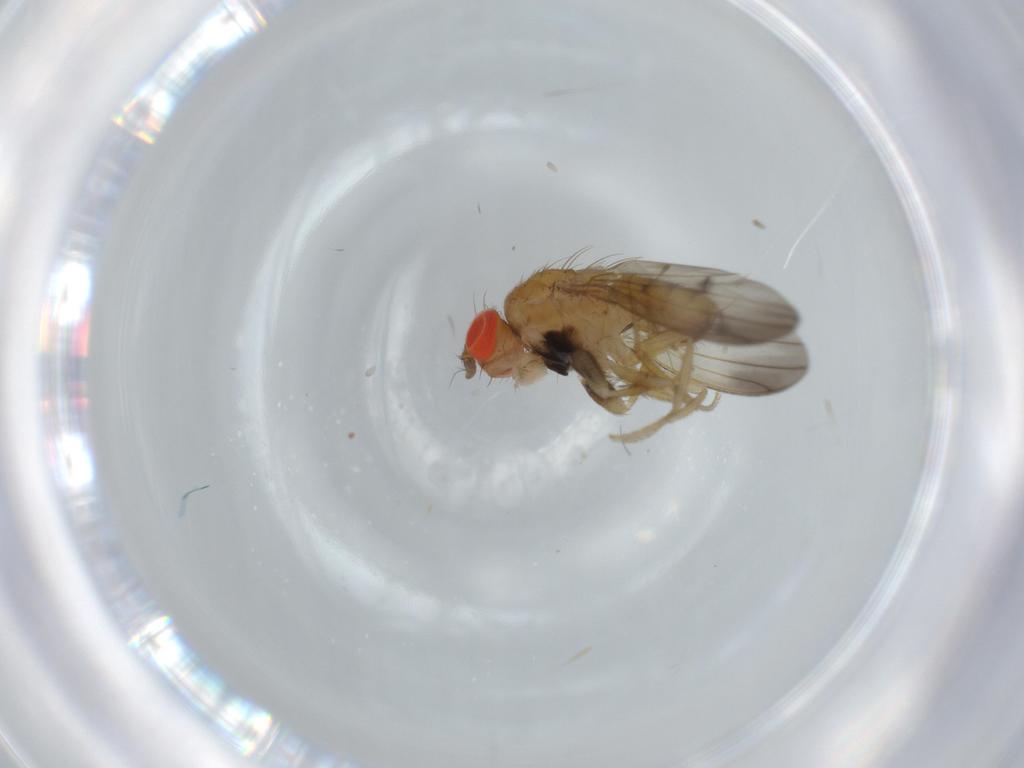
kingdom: Animalia
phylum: Arthropoda
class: Insecta
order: Diptera
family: Drosophilidae
